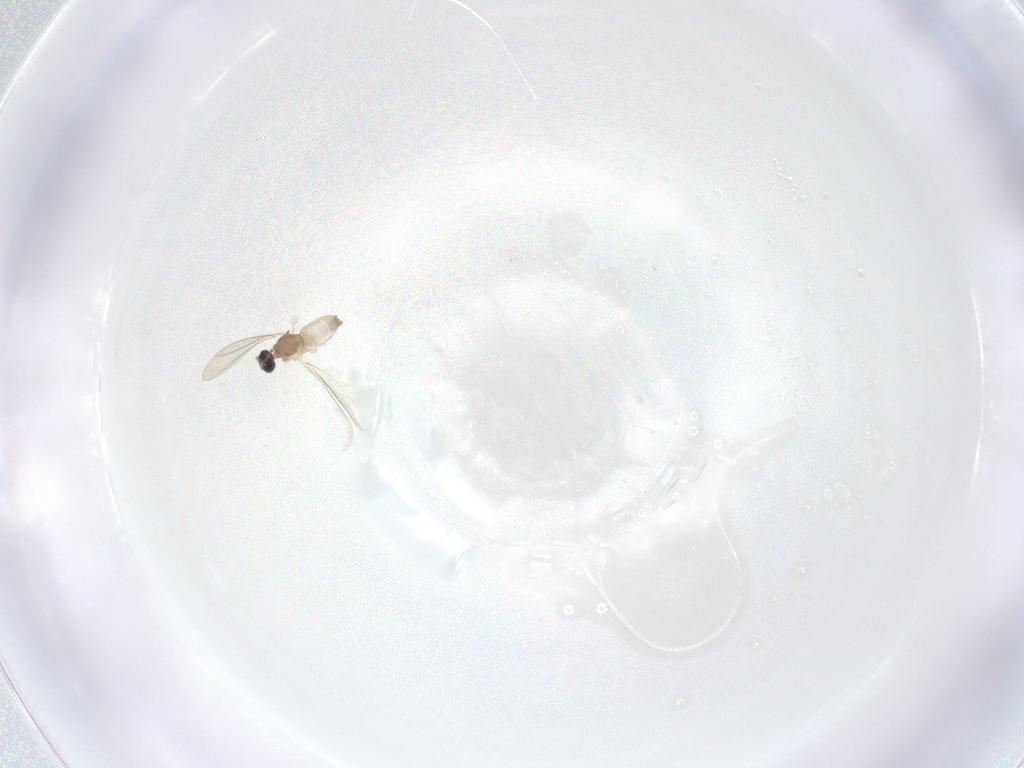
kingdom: Animalia
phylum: Arthropoda
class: Insecta
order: Diptera
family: Cecidomyiidae
